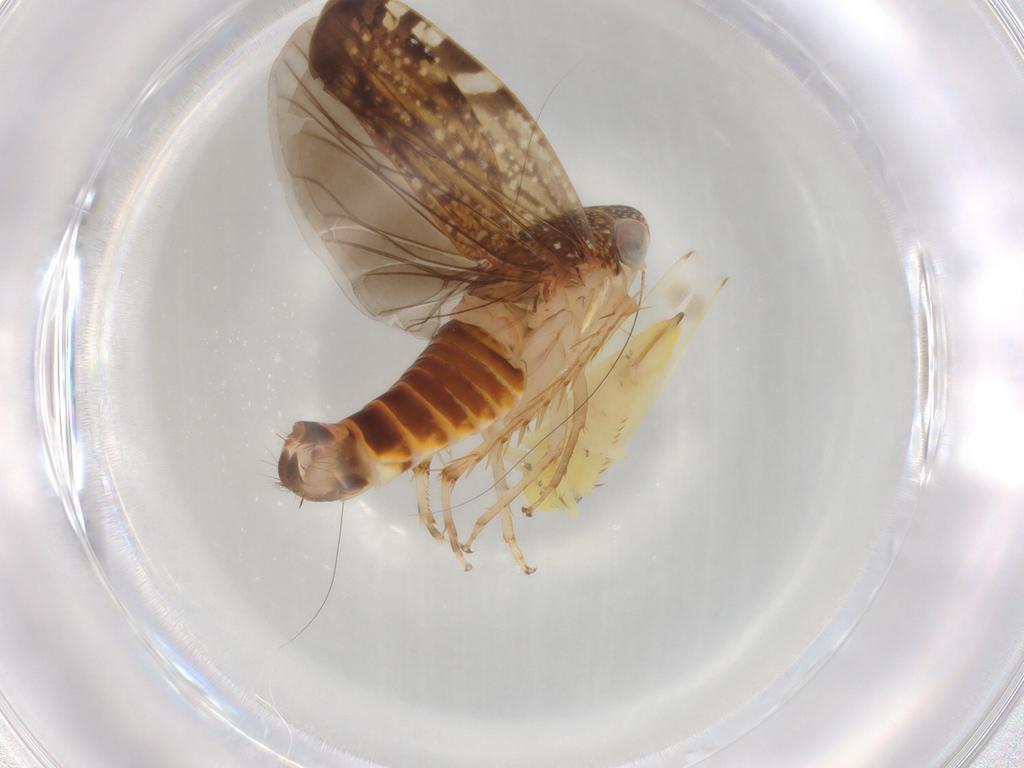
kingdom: Animalia
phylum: Arthropoda
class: Insecta
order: Hemiptera
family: Cicadellidae
